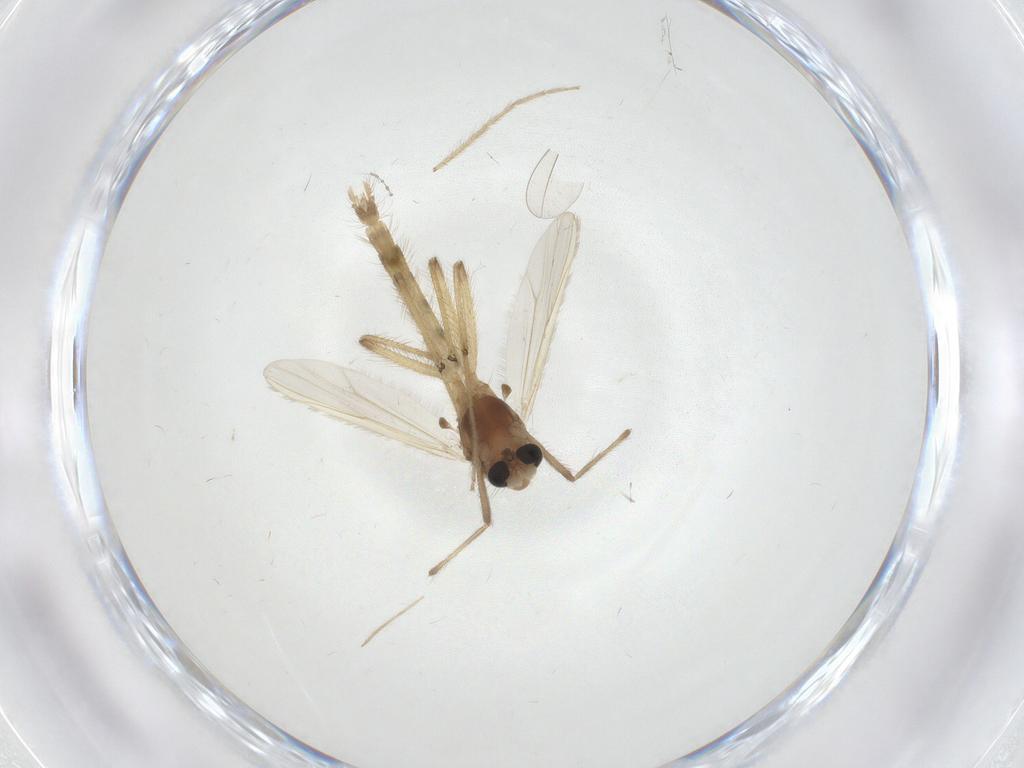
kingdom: Animalia
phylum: Arthropoda
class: Insecta
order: Diptera
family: Chironomidae
